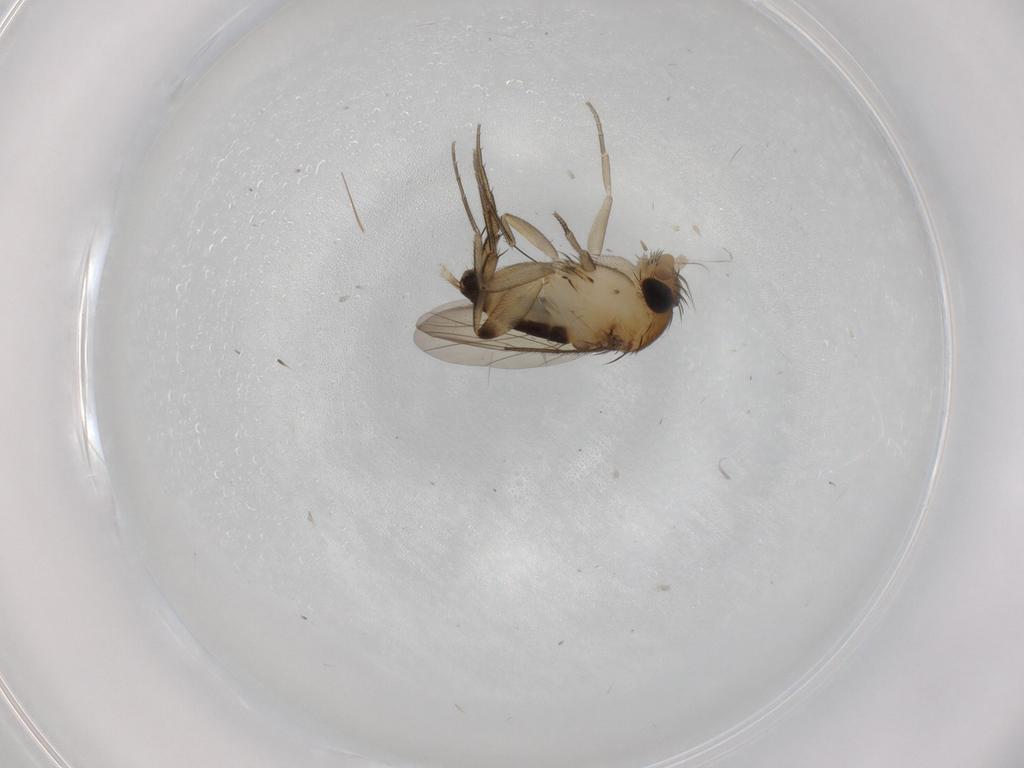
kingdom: Animalia
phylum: Arthropoda
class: Insecta
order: Diptera
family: Phoridae
